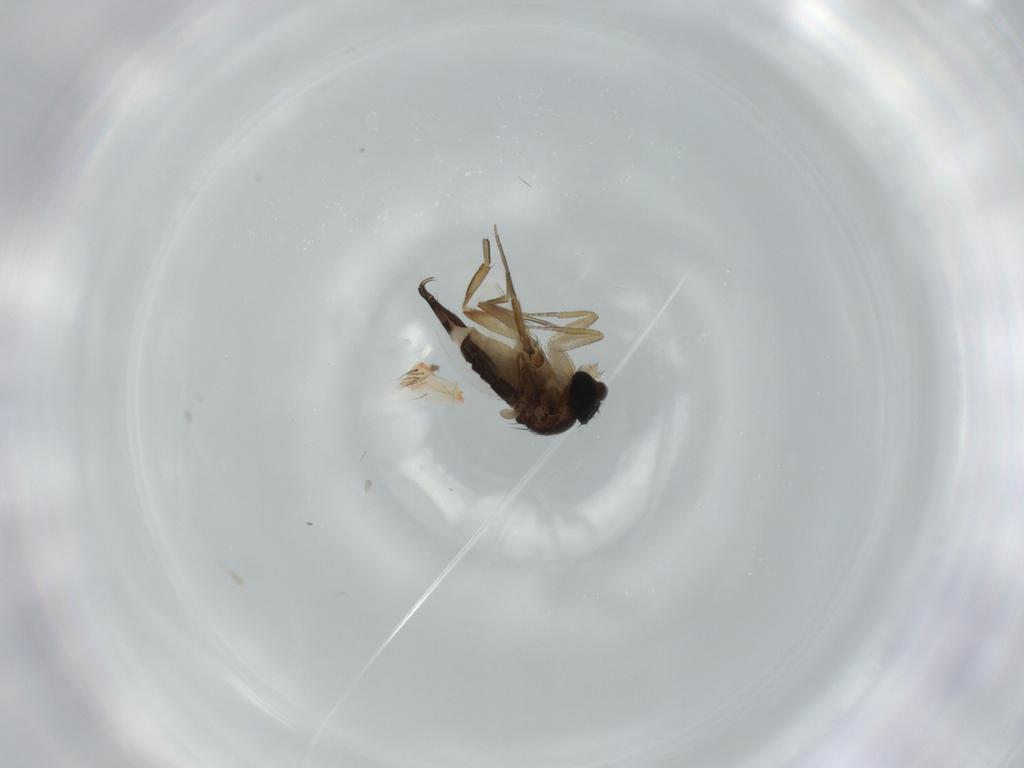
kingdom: Animalia
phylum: Arthropoda
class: Insecta
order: Diptera
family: Phoridae
